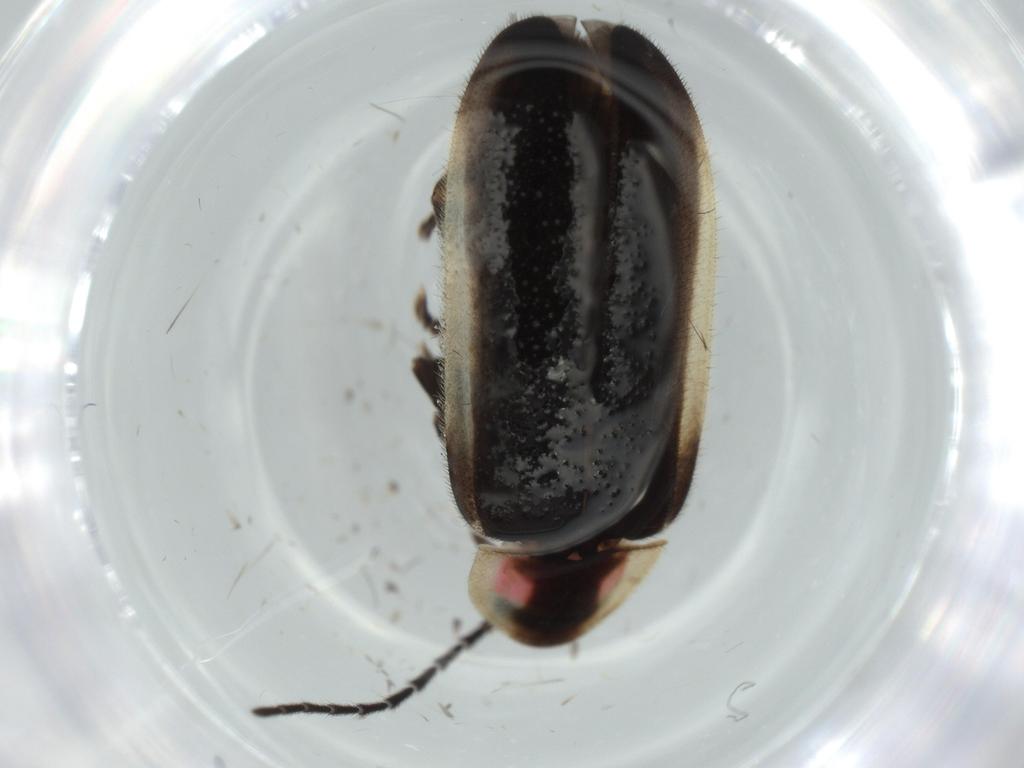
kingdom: Animalia
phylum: Arthropoda
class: Insecta
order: Coleoptera
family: Lampyridae
